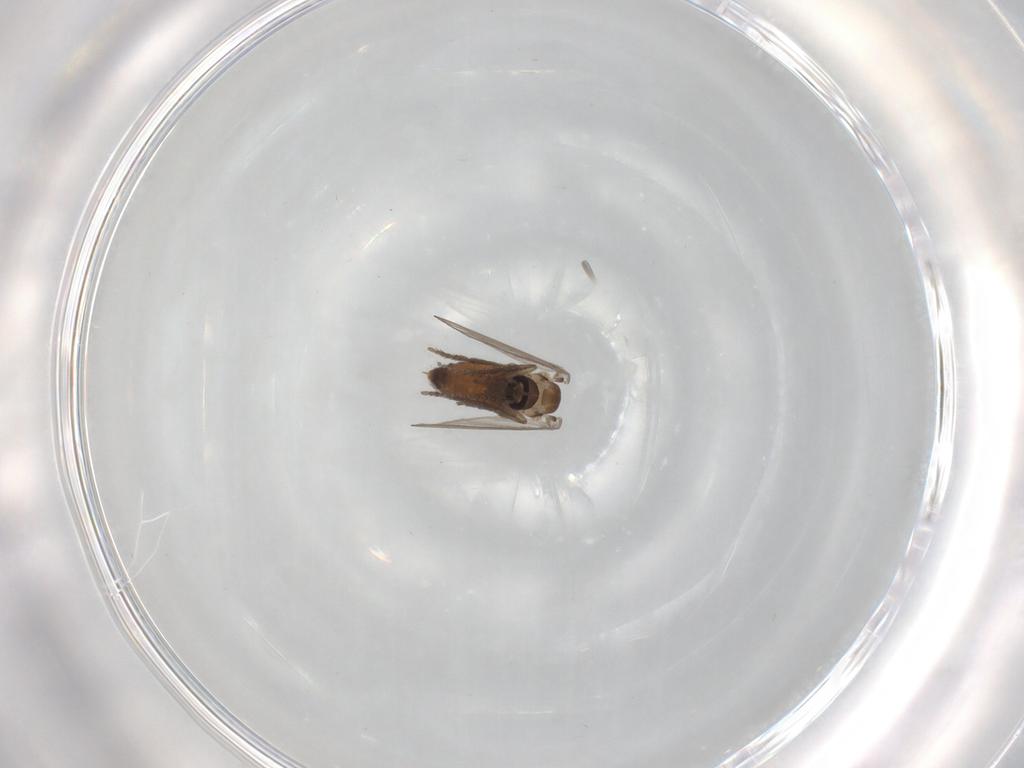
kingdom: Animalia
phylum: Arthropoda
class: Insecta
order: Diptera
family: Psychodidae
